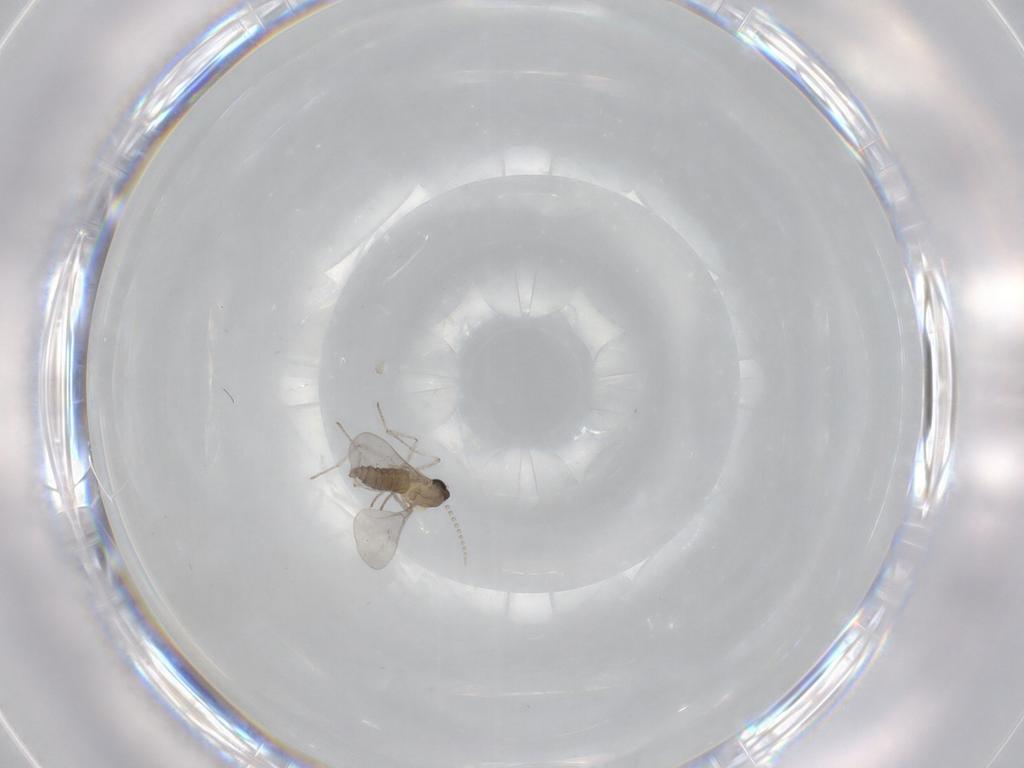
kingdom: Animalia
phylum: Arthropoda
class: Insecta
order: Diptera
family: Cecidomyiidae
